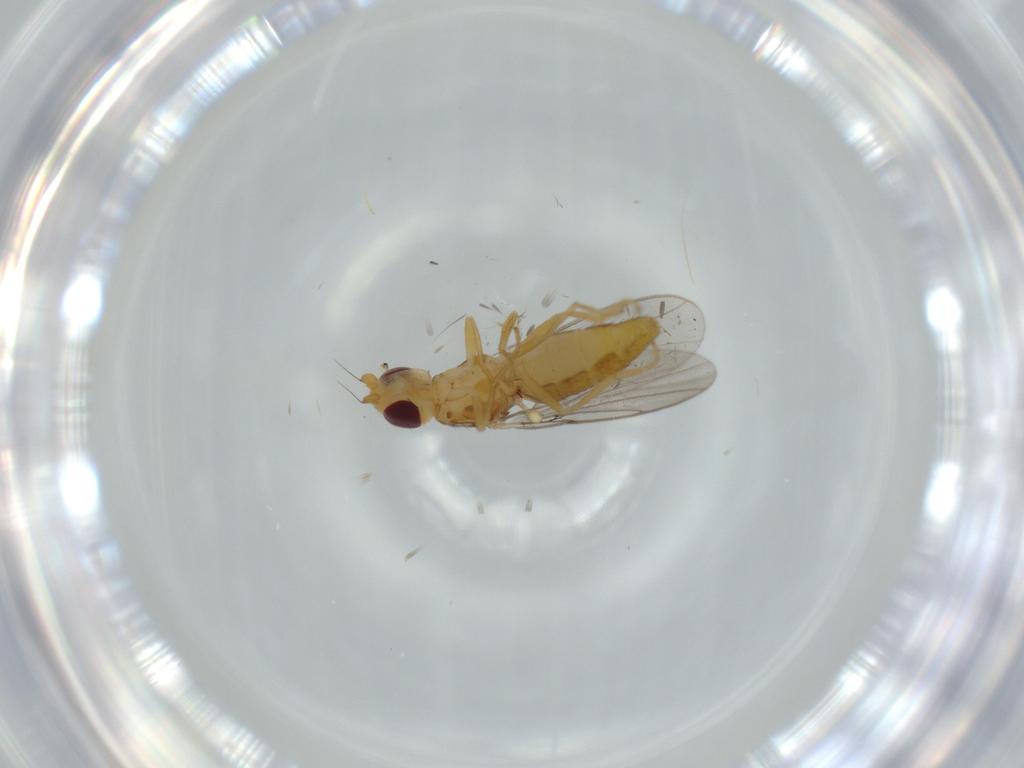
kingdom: Animalia
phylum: Arthropoda
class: Insecta
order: Diptera
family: Chloropidae
